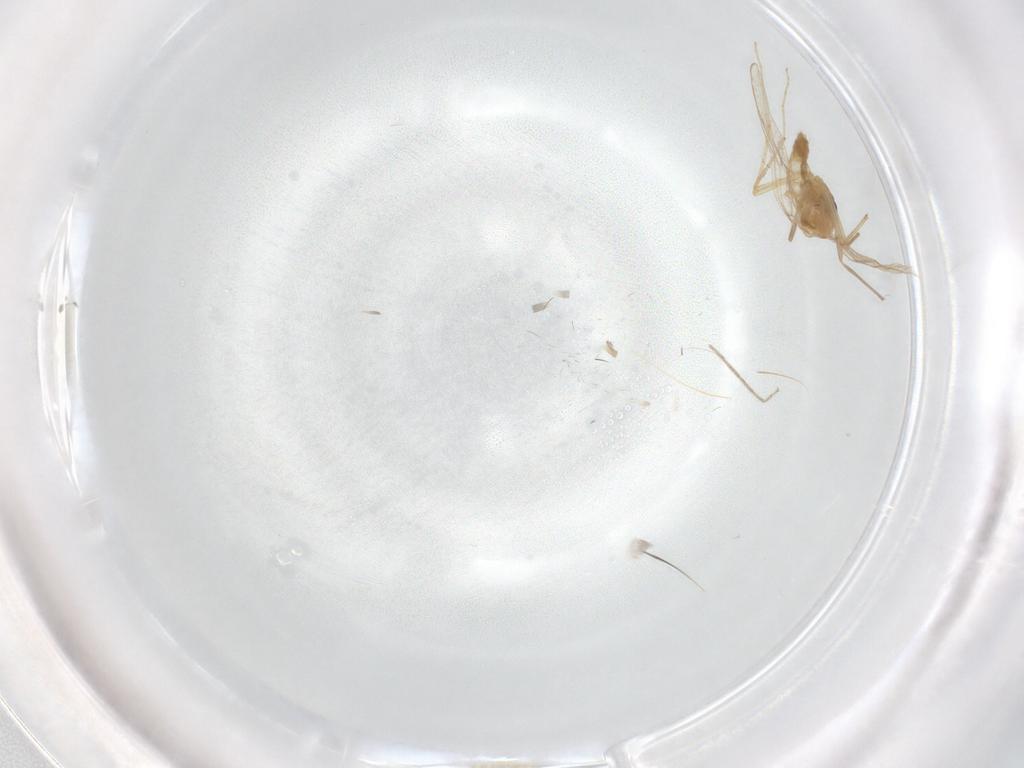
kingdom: Animalia
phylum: Arthropoda
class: Insecta
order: Diptera
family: Chironomidae
